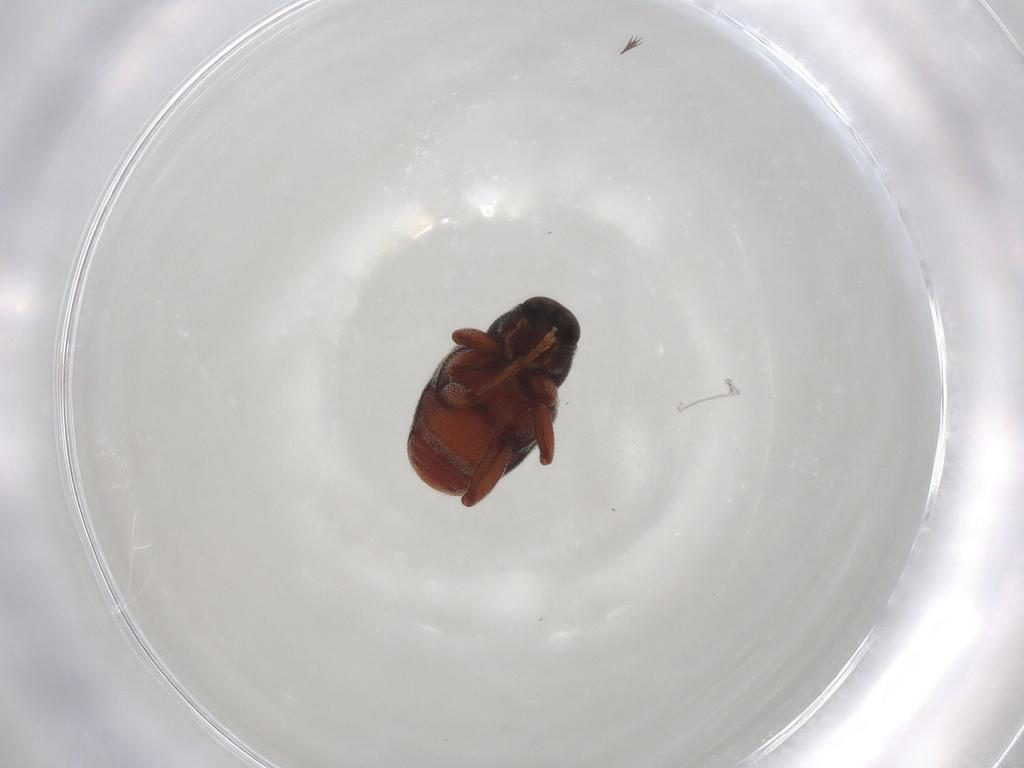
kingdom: Animalia
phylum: Arthropoda
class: Insecta
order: Coleoptera
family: Curculionidae
